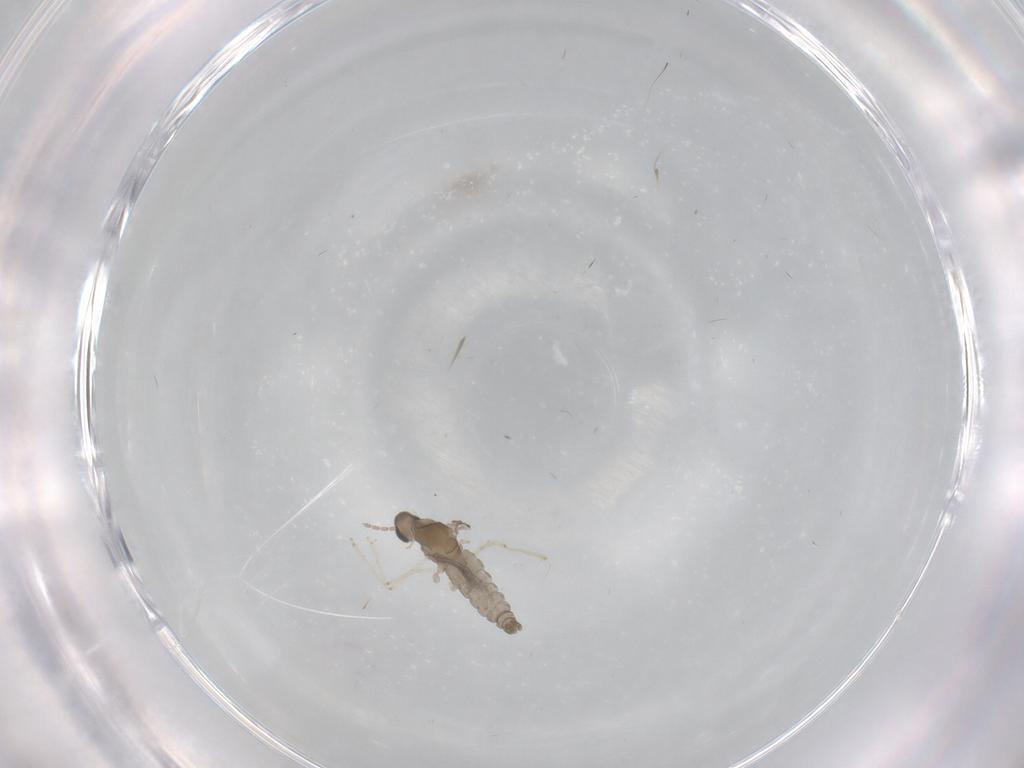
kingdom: Animalia
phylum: Arthropoda
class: Insecta
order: Diptera
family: Cecidomyiidae
